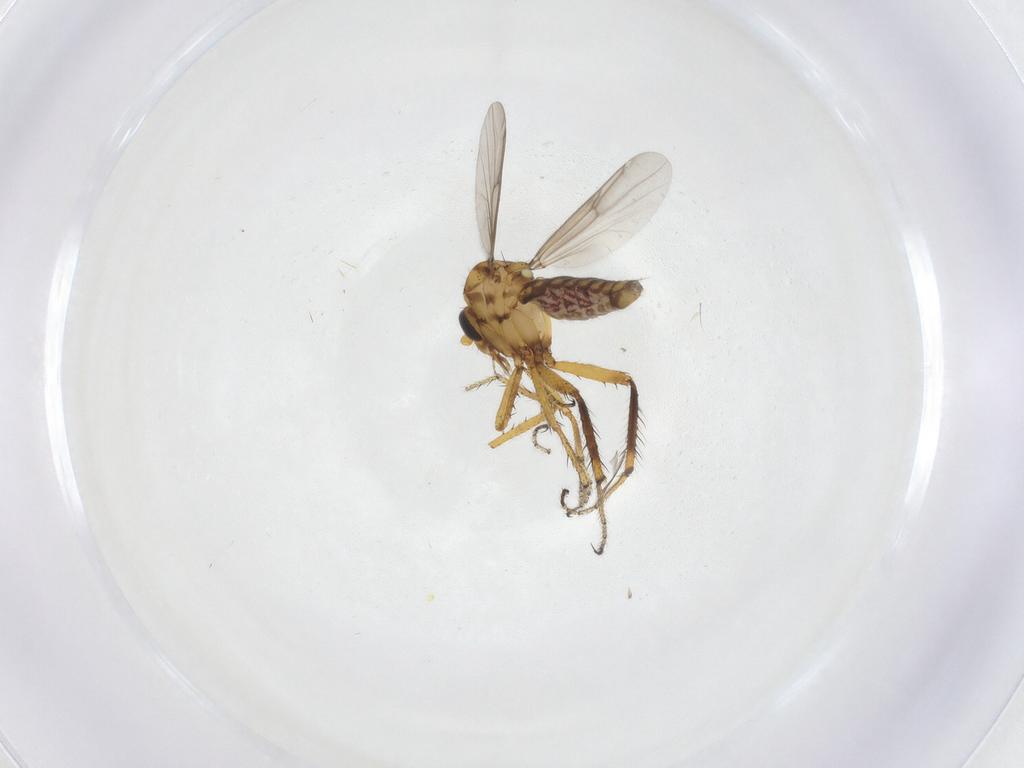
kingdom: Animalia
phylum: Arthropoda
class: Insecta
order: Diptera
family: Ceratopogonidae
